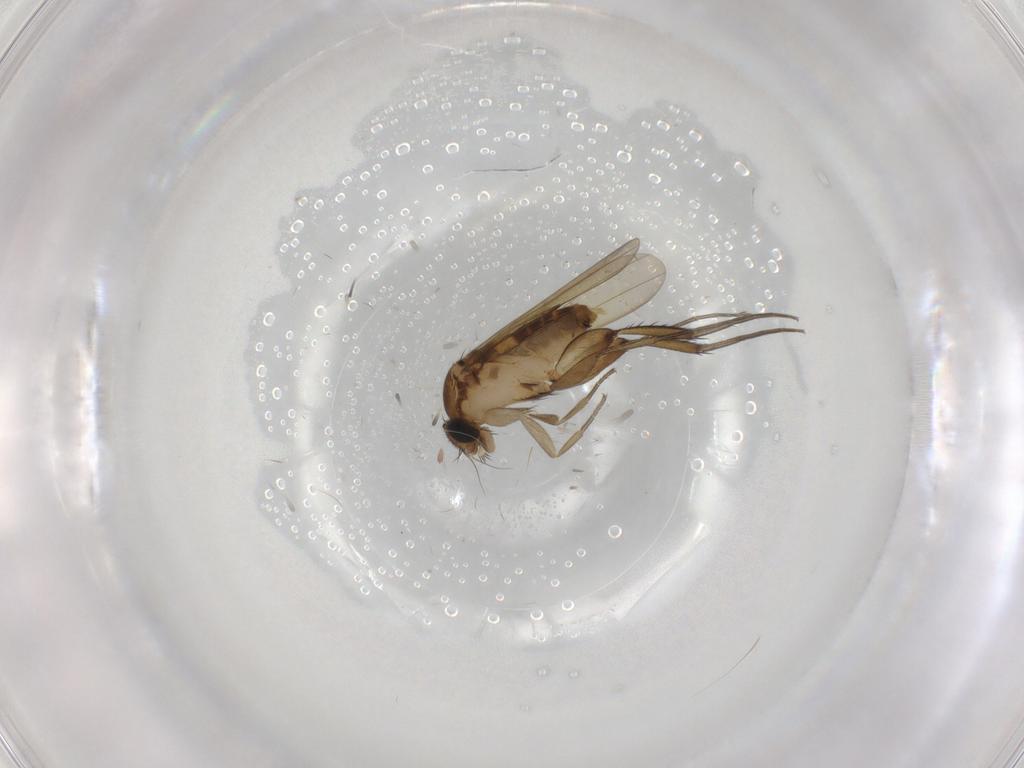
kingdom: Animalia
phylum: Arthropoda
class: Insecta
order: Diptera
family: Phoridae
